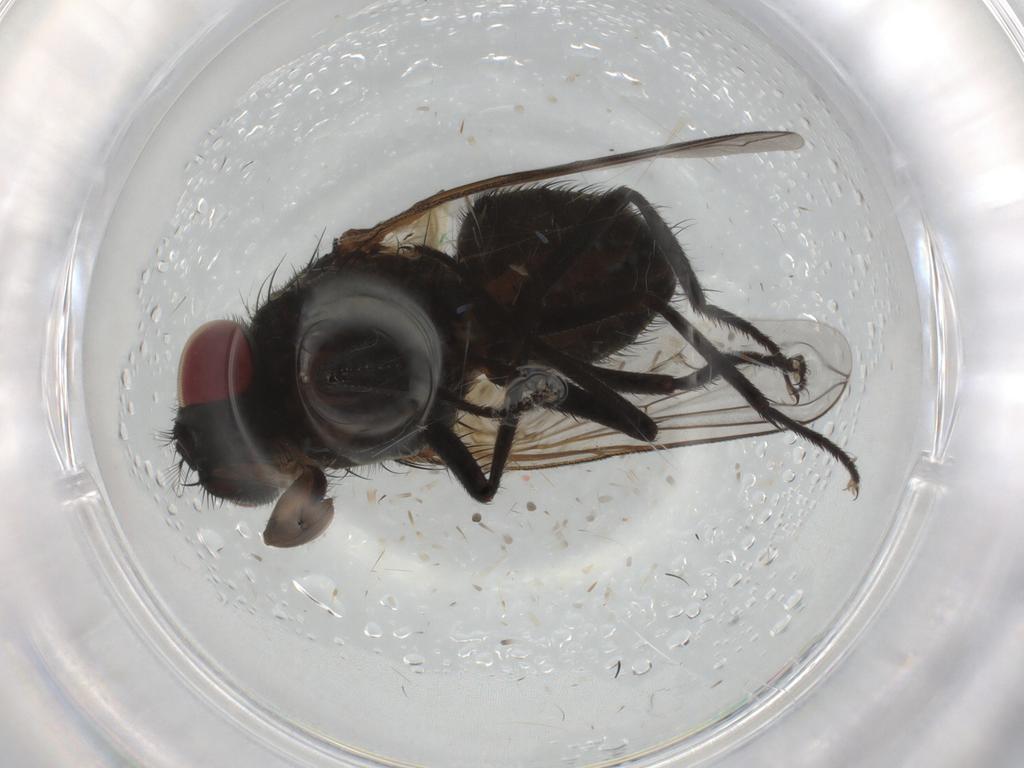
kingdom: Animalia
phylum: Arthropoda
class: Insecta
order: Diptera
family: Muscidae
